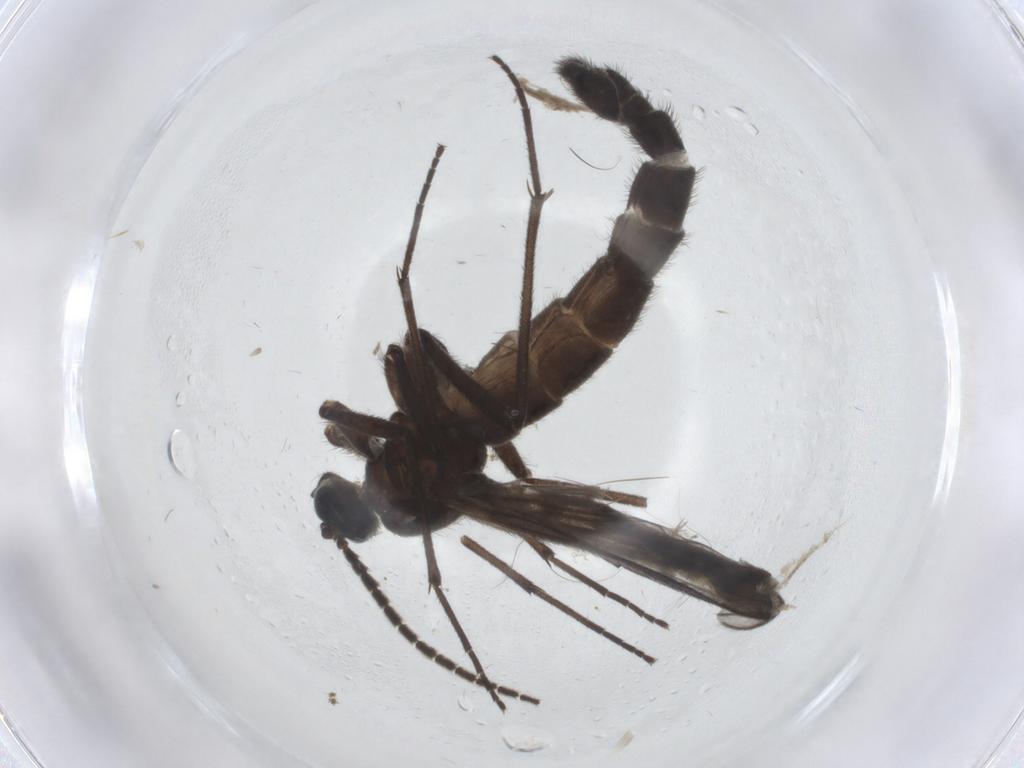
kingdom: Animalia
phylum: Arthropoda
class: Insecta
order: Diptera
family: Psychodidae
